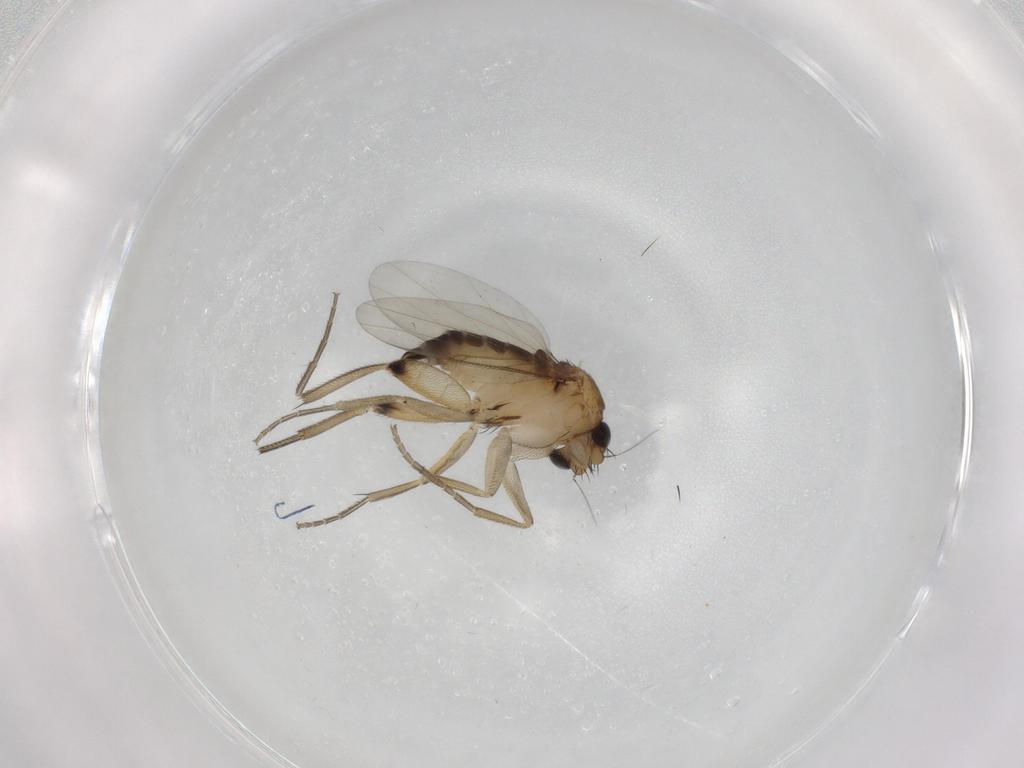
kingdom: Animalia
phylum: Arthropoda
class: Insecta
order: Diptera
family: Phoridae
